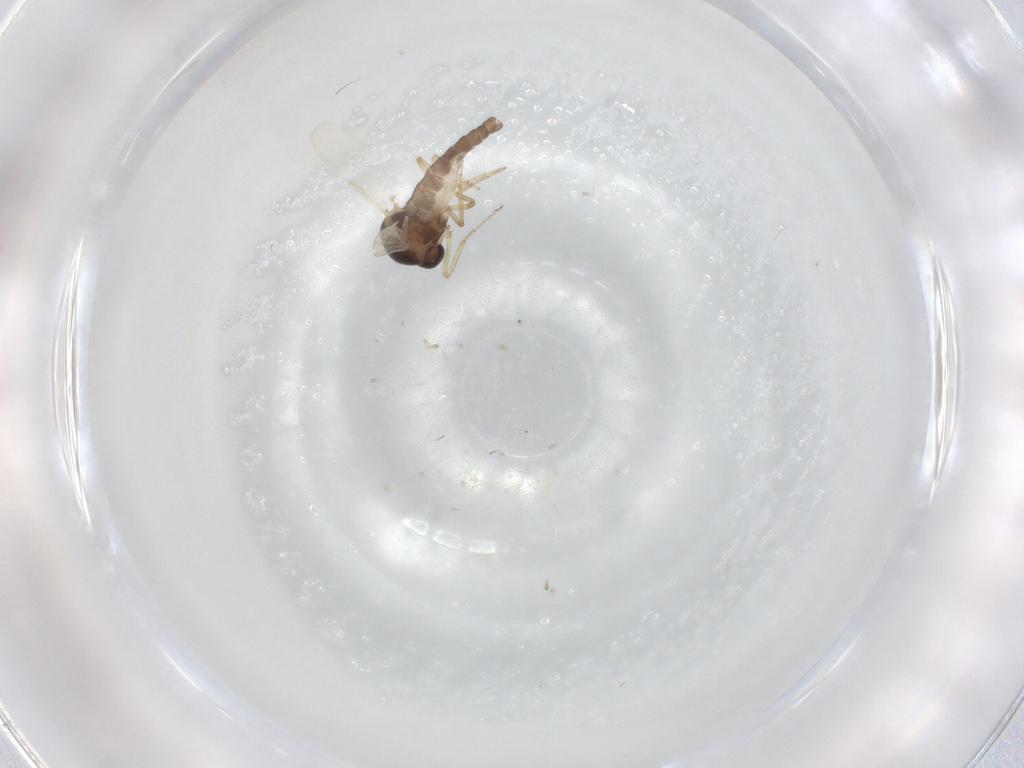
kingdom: Animalia
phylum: Arthropoda
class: Insecta
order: Diptera
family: Ceratopogonidae
